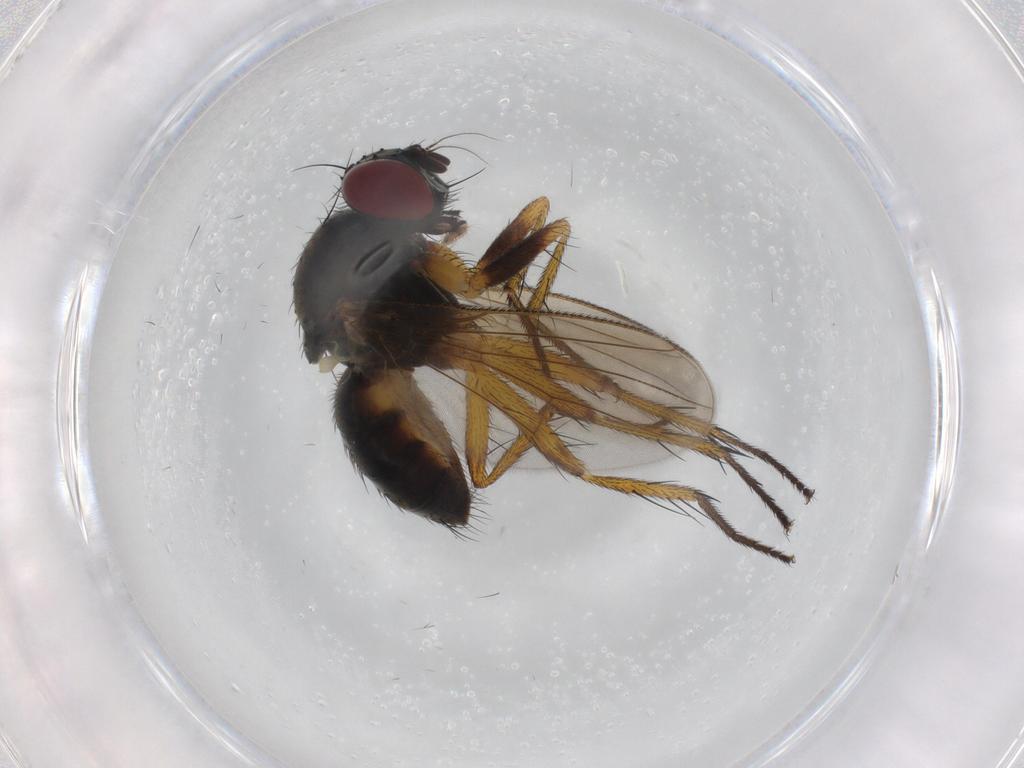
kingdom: Animalia
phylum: Arthropoda
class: Insecta
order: Diptera
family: Muscidae
